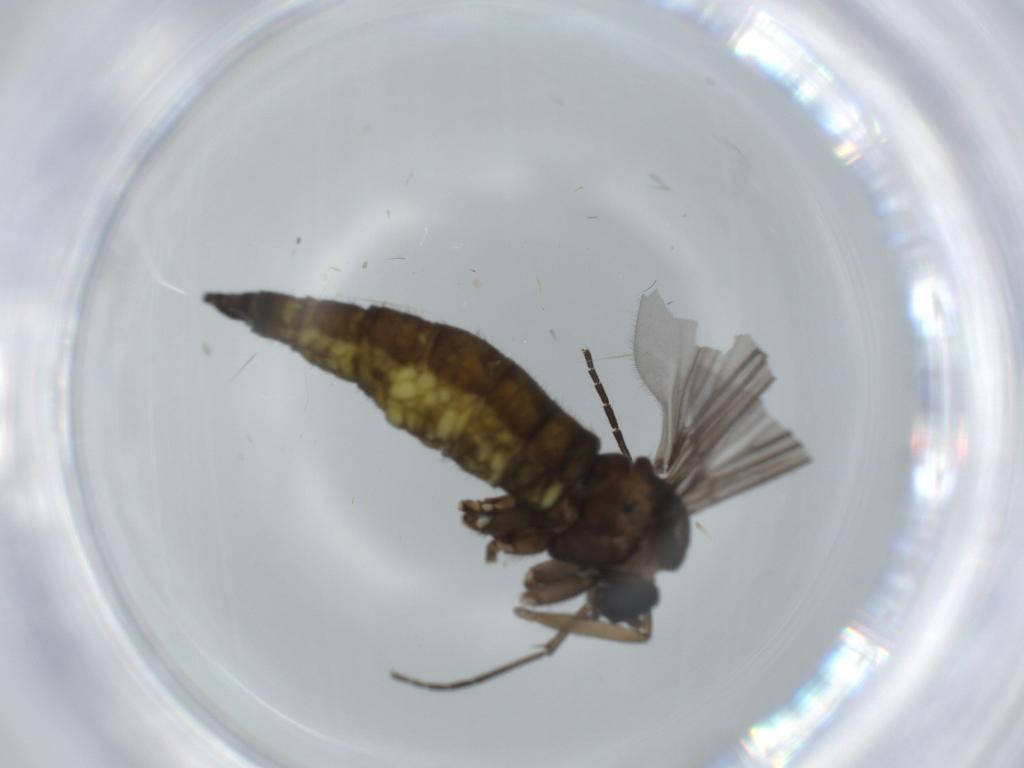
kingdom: Animalia
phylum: Arthropoda
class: Insecta
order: Diptera
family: Sciaridae
